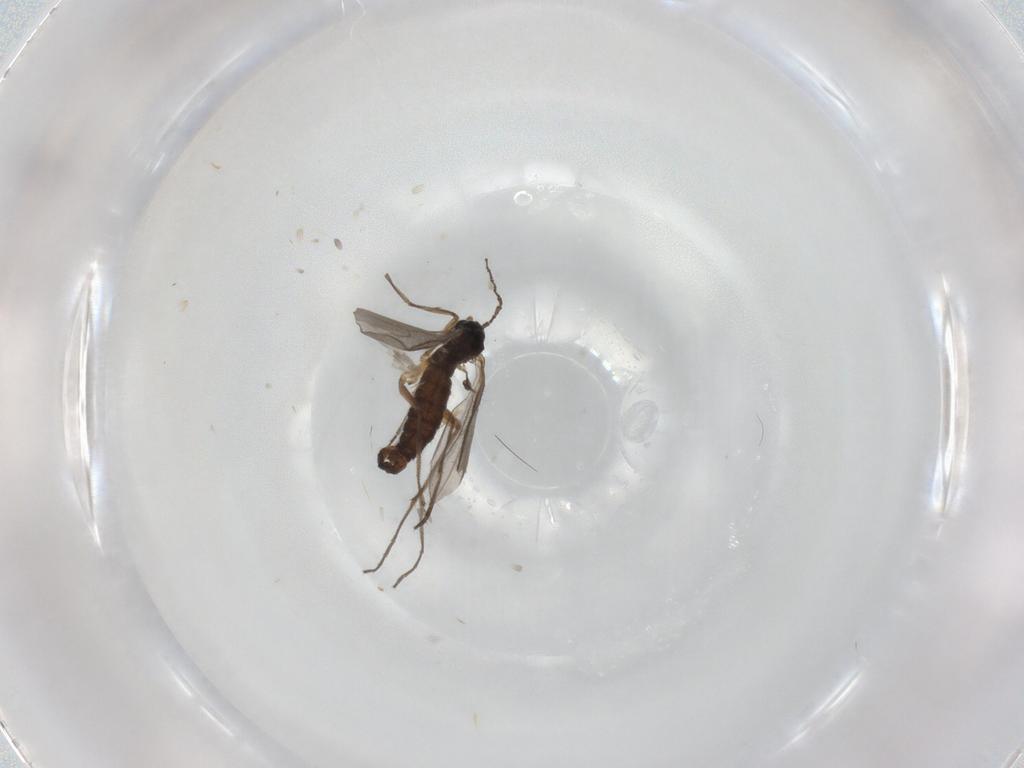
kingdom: Animalia
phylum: Arthropoda
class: Insecta
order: Diptera
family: Sciaridae
